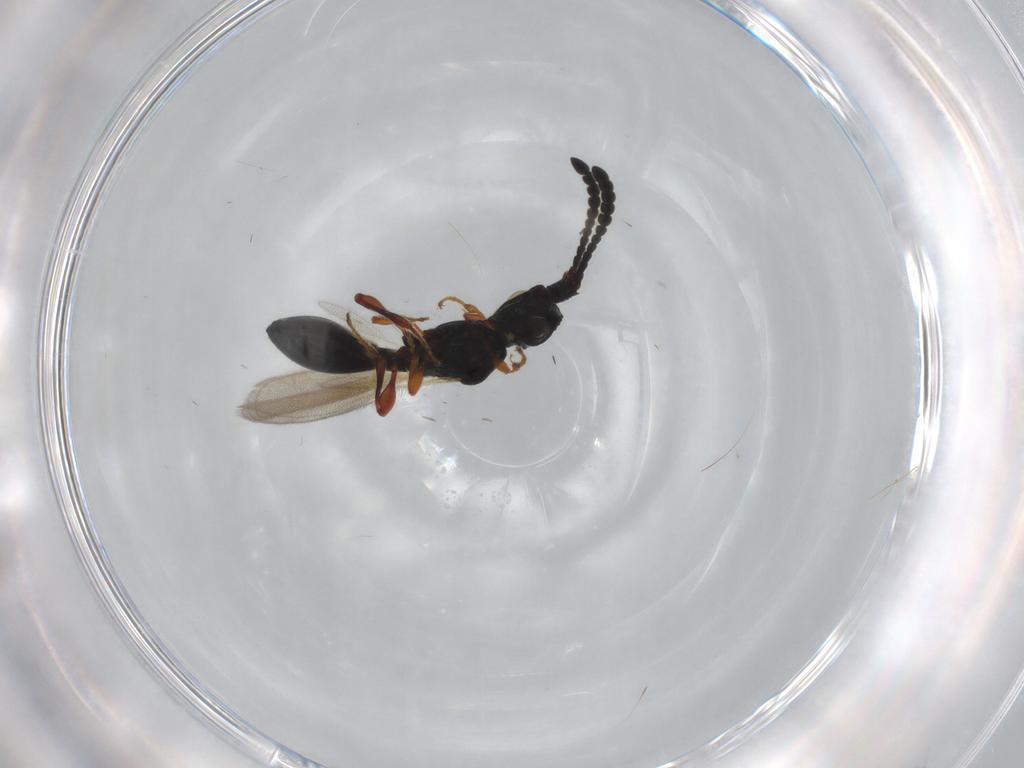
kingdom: Animalia
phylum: Arthropoda
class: Insecta
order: Hymenoptera
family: Diapriidae
